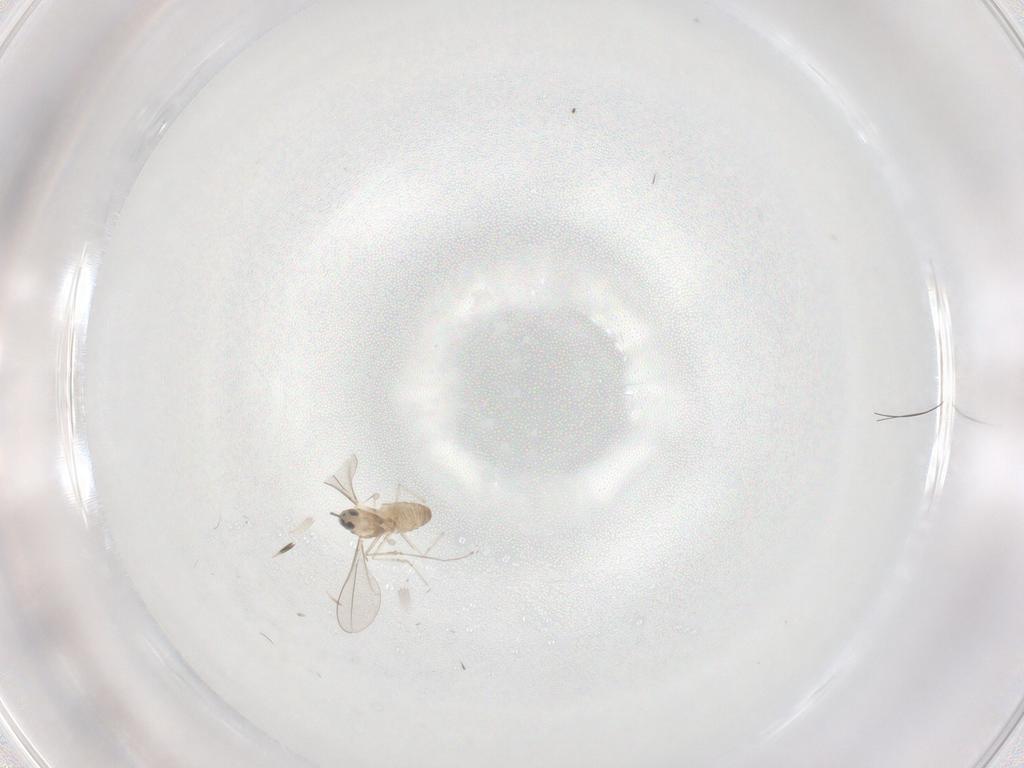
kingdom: Animalia
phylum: Arthropoda
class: Insecta
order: Diptera
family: Cecidomyiidae
